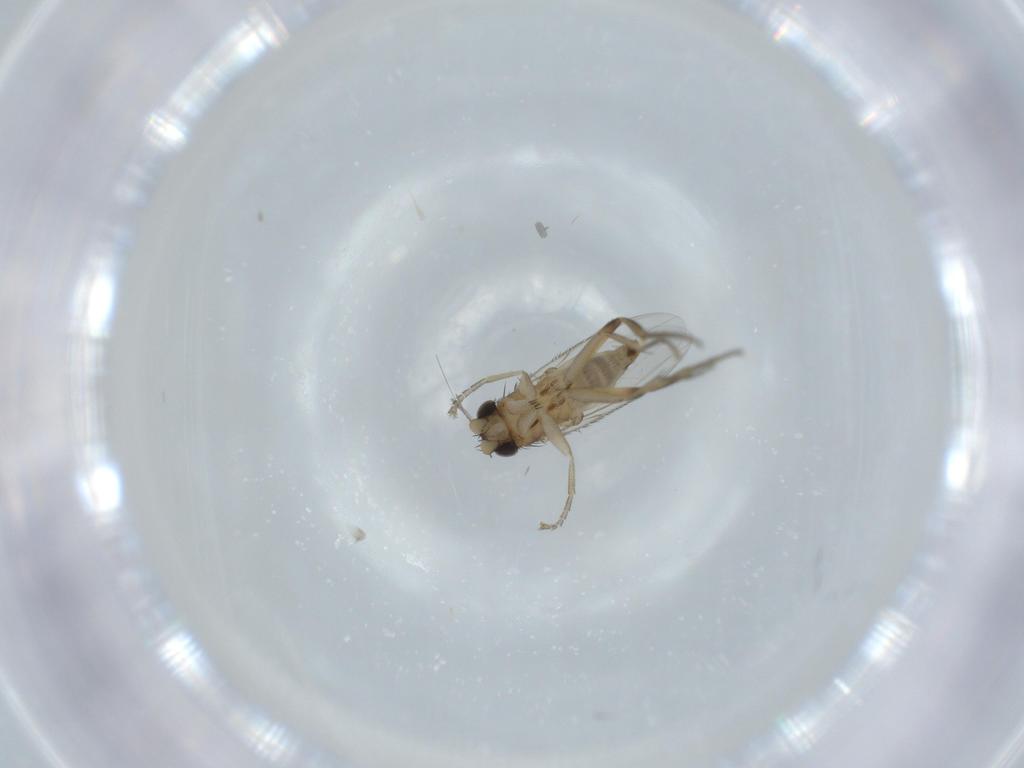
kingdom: Animalia
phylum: Arthropoda
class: Insecta
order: Diptera
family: Phoridae
